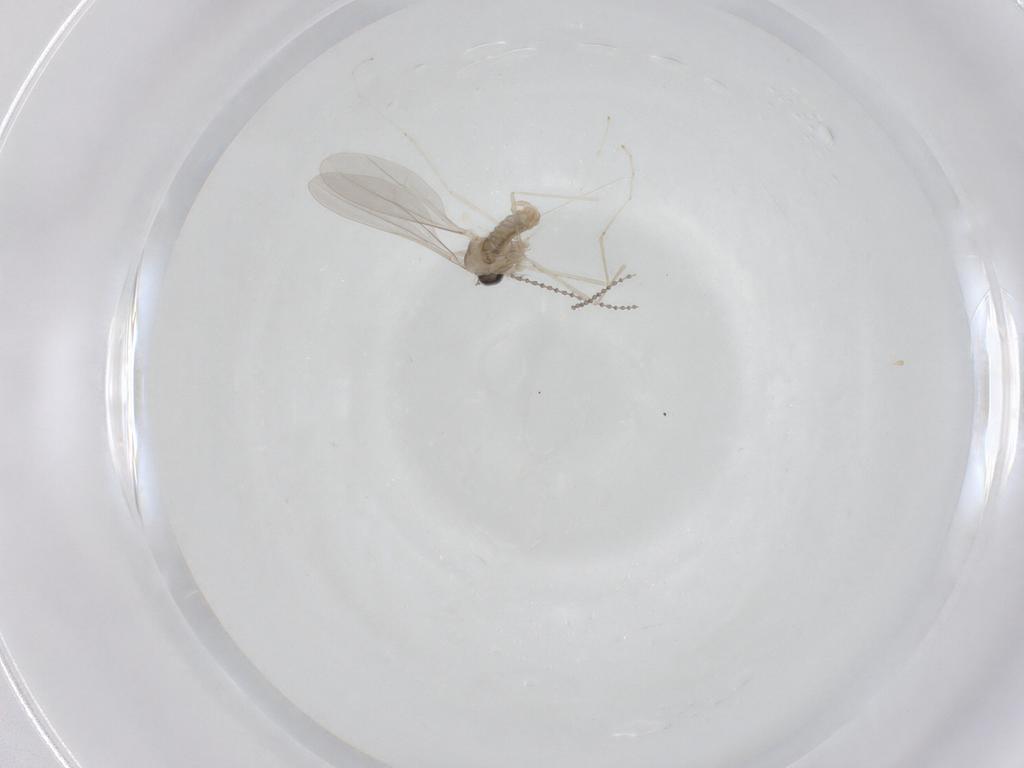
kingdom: Animalia
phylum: Arthropoda
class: Insecta
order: Diptera
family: Cecidomyiidae
